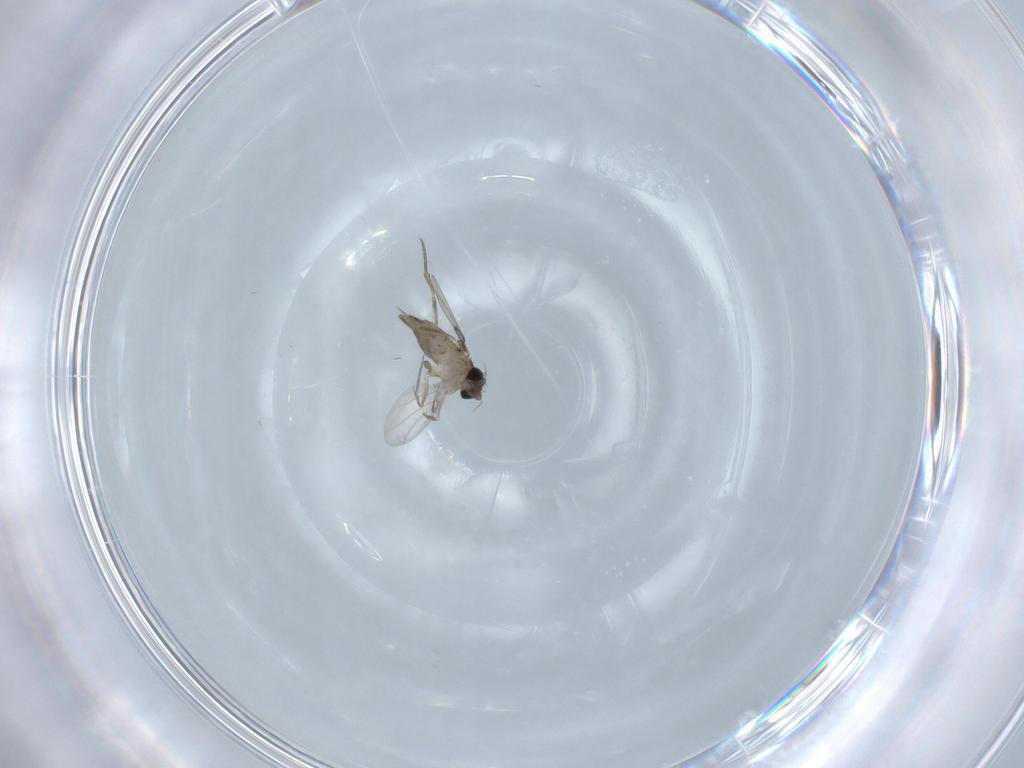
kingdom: Animalia
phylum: Arthropoda
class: Insecta
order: Diptera
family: Phoridae
